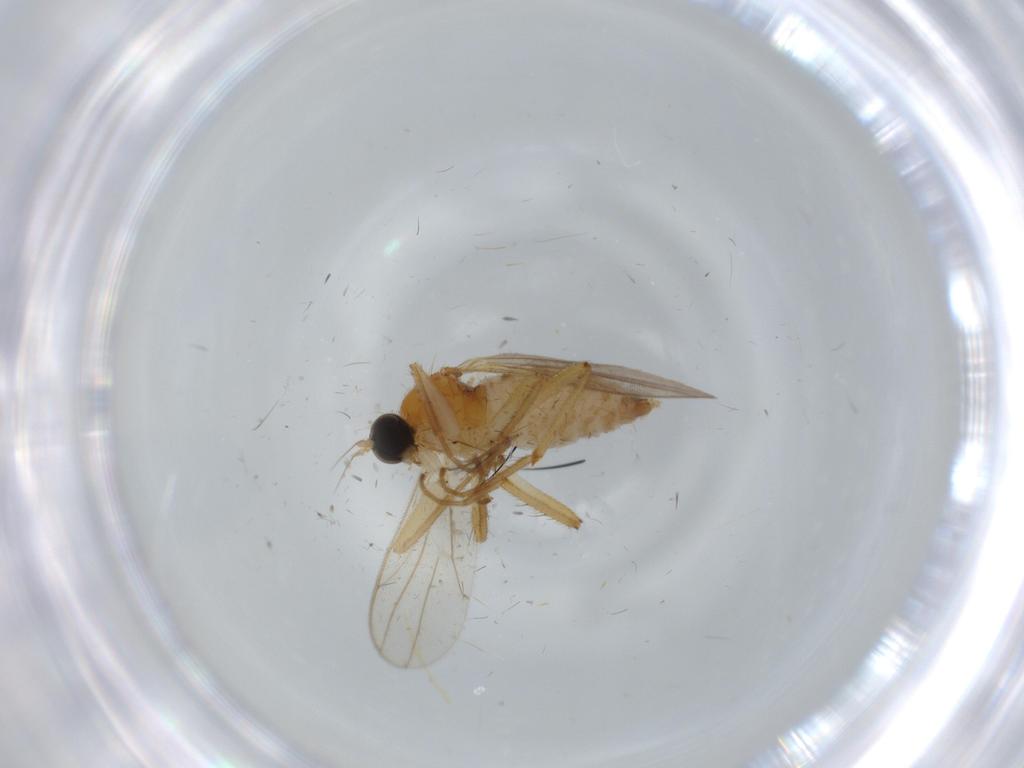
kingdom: Animalia
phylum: Arthropoda
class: Insecta
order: Diptera
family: Hybotidae
